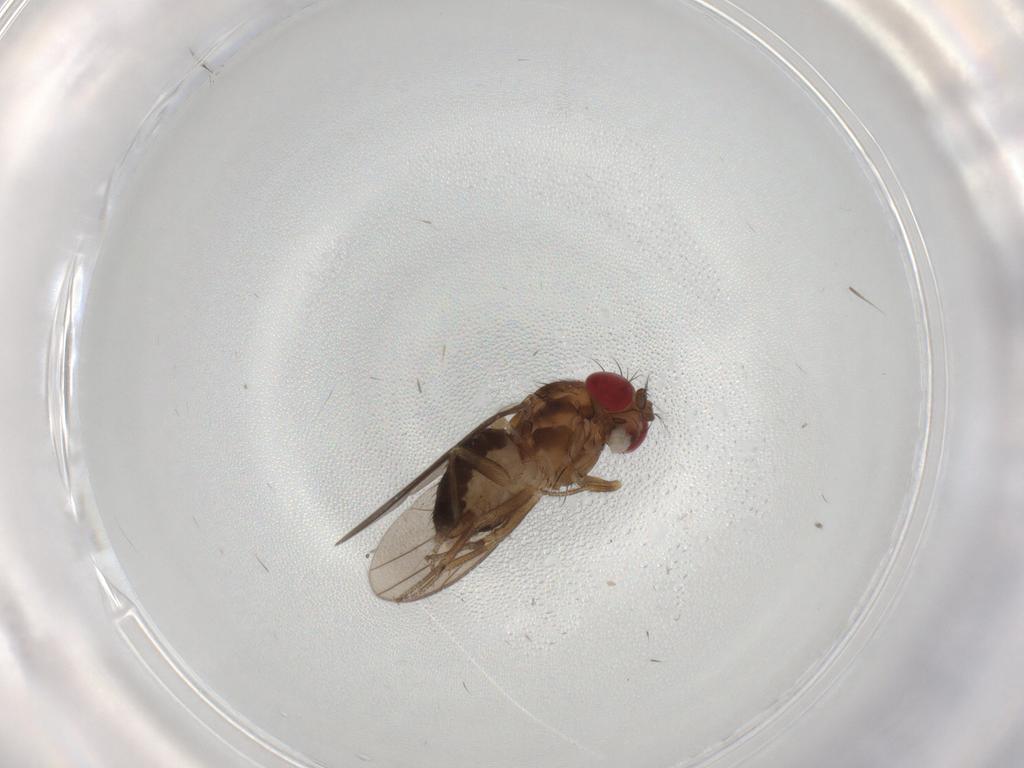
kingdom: Animalia
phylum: Arthropoda
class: Insecta
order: Diptera
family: Drosophilidae
